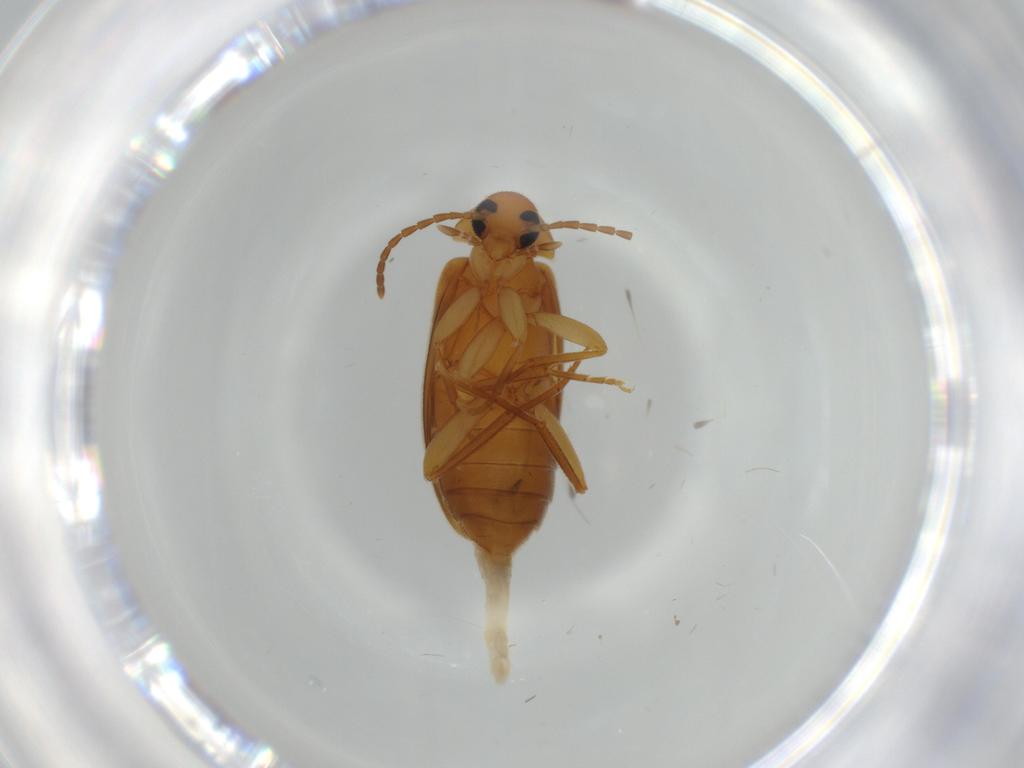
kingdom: Animalia
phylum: Arthropoda
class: Insecta
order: Coleoptera
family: Scraptiidae
